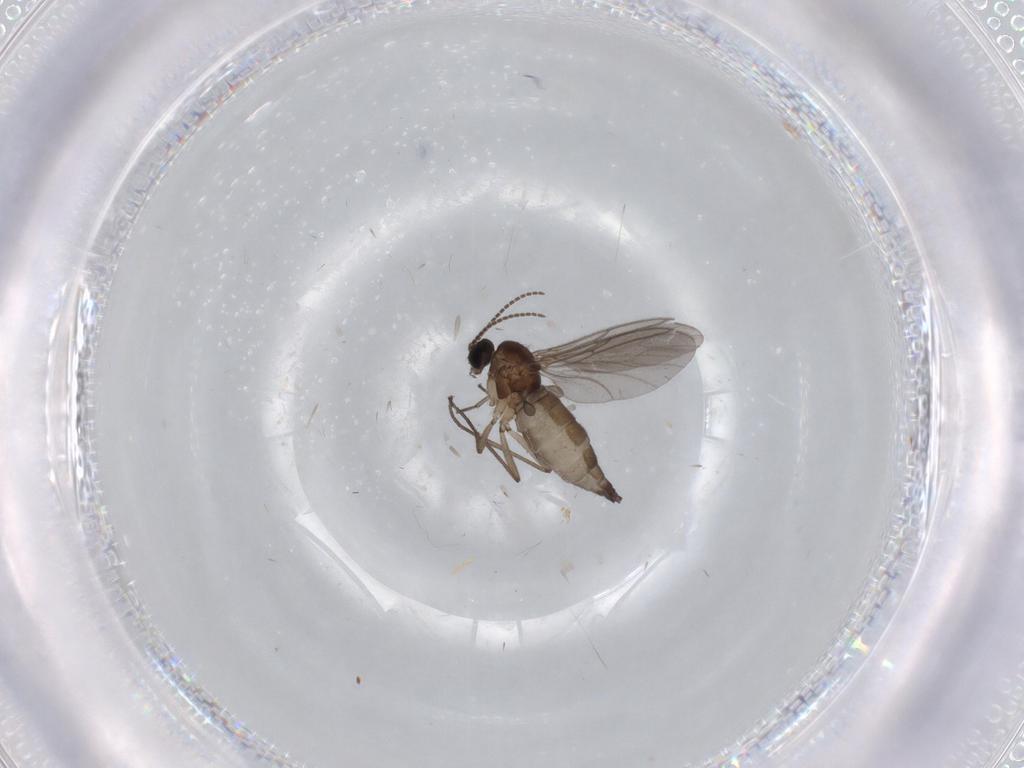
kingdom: Animalia
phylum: Arthropoda
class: Insecta
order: Diptera
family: Sciaridae
